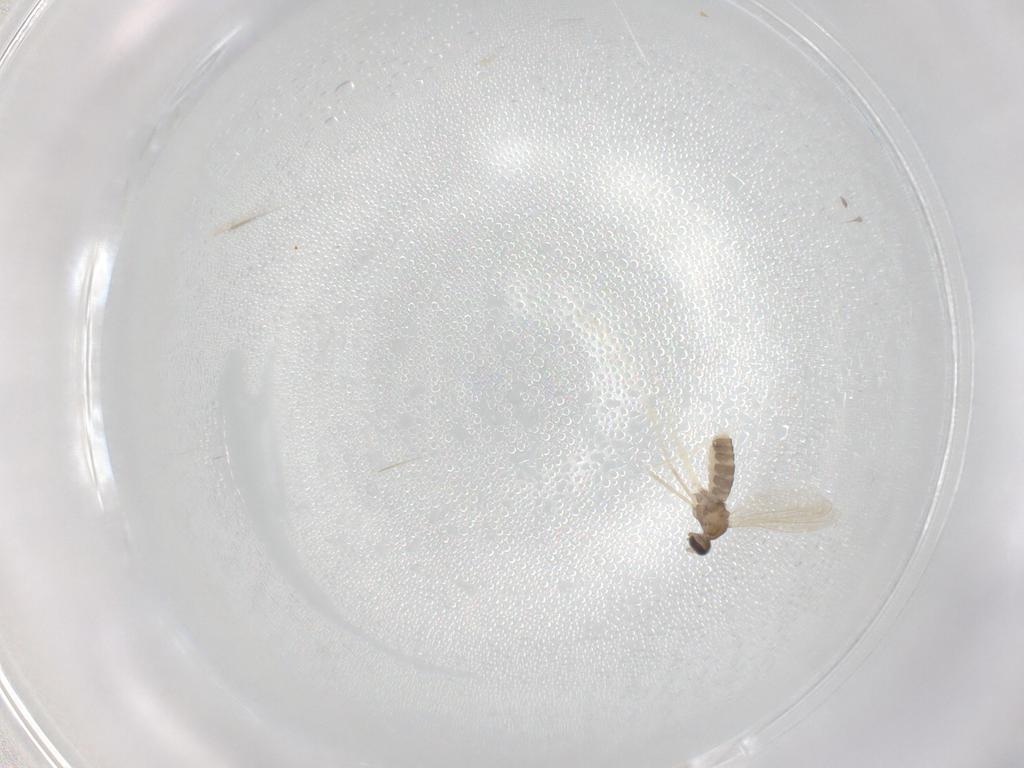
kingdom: Animalia
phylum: Arthropoda
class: Insecta
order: Diptera
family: Cecidomyiidae
